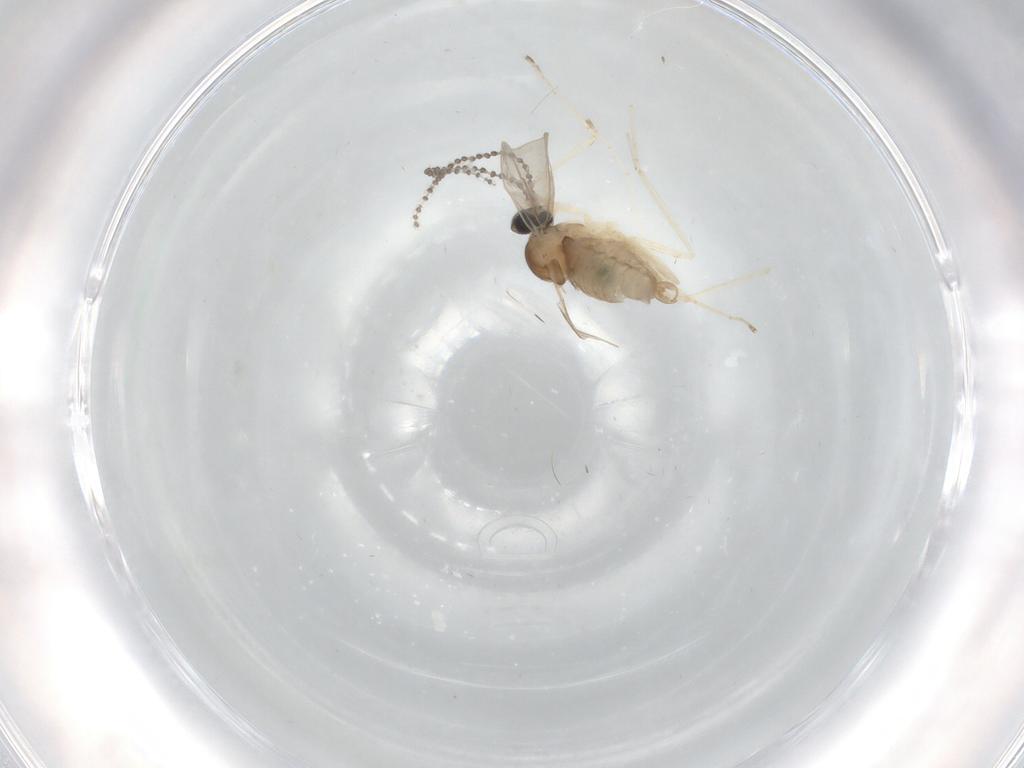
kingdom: Animalia
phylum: Arthropoda
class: Insecta
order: Diptera
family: Cecidomyiidae
